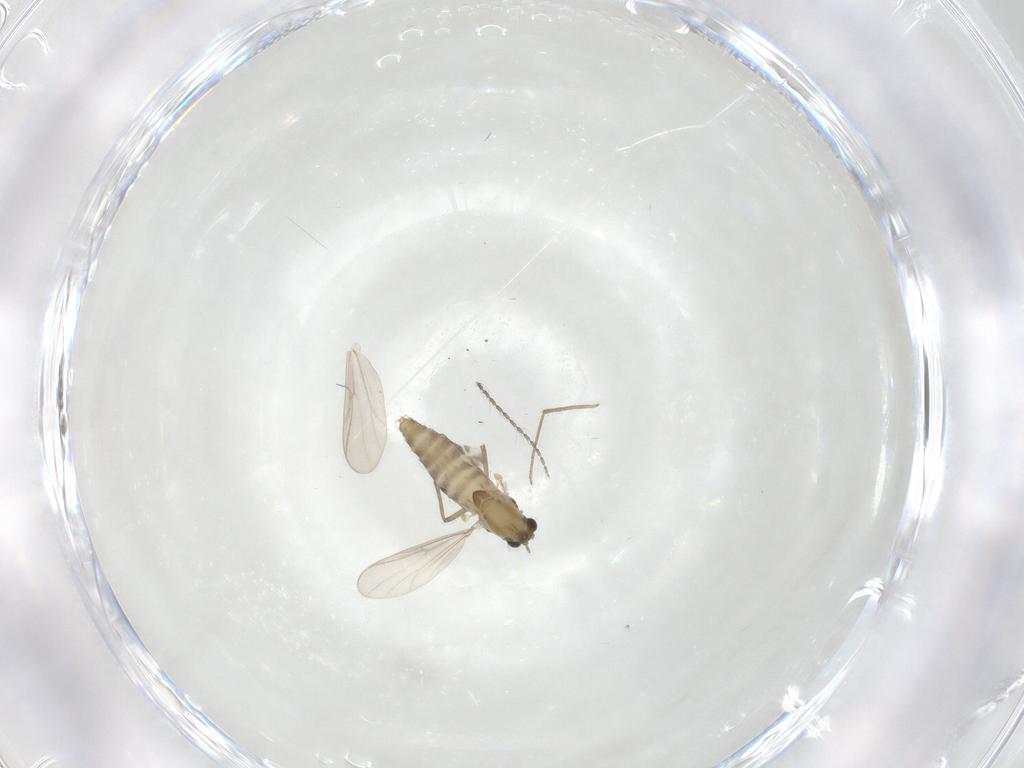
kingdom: Animalia
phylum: Arthropoda
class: Insecta
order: Diptera
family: Chironomidae
